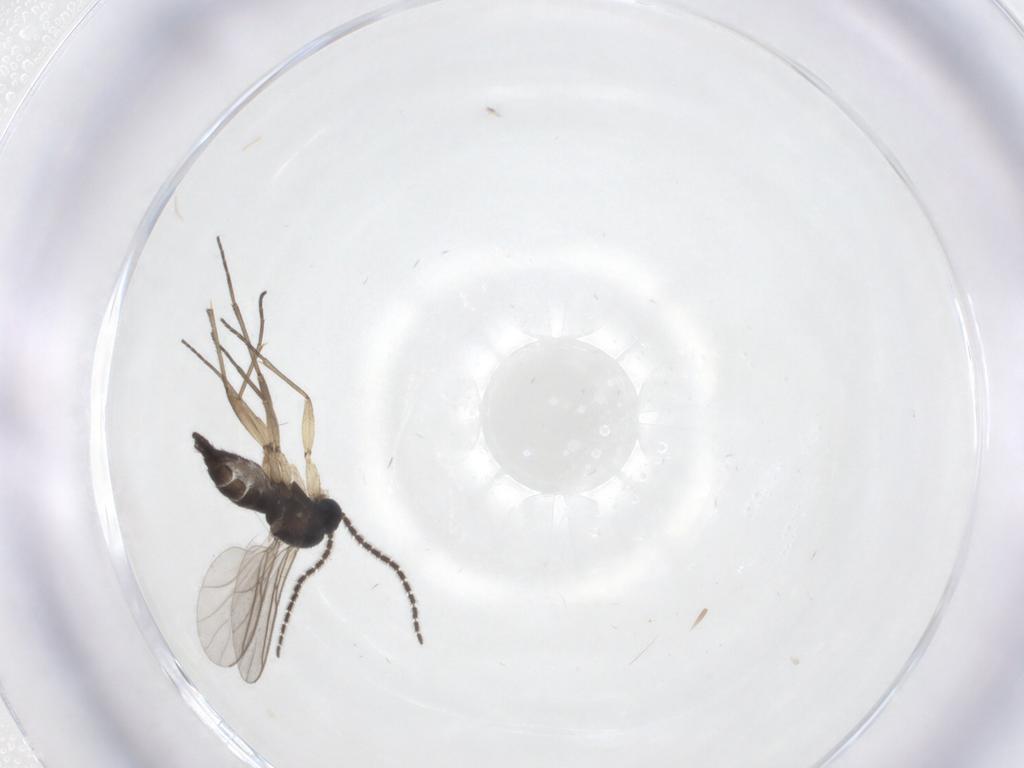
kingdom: Animalia
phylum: Arthropoda
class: Insecta
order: Diptera
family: Sciaridae
